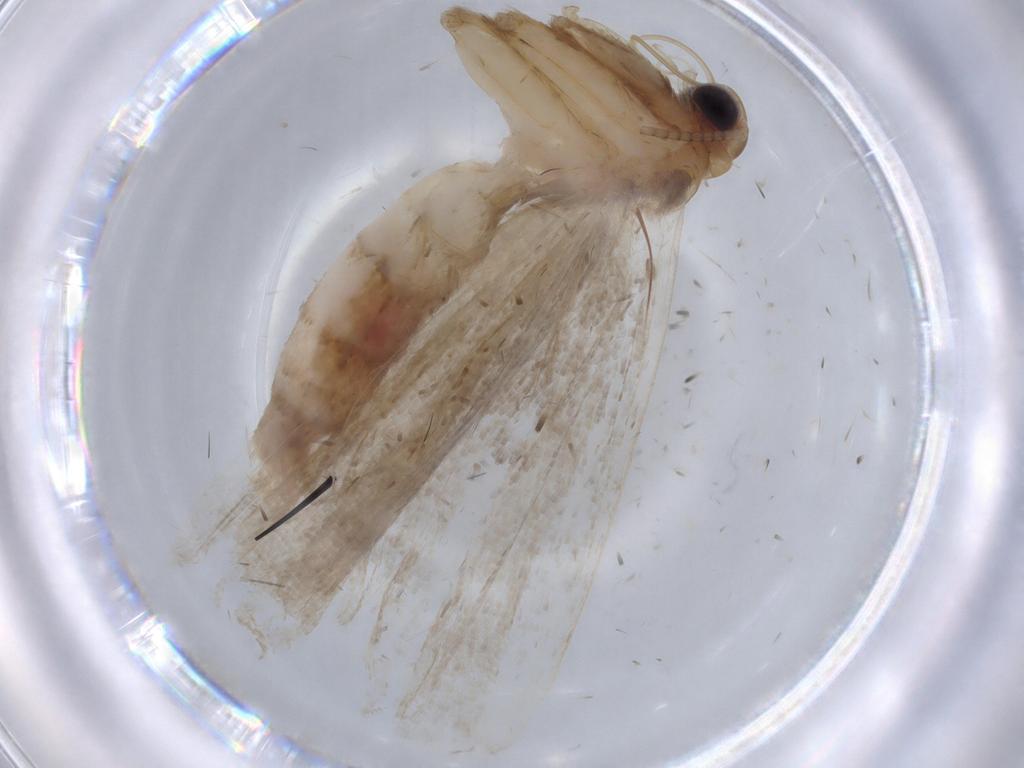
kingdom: Animalia
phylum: Arthropoda
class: Insecta
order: Lepidoptera
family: Erebidae
